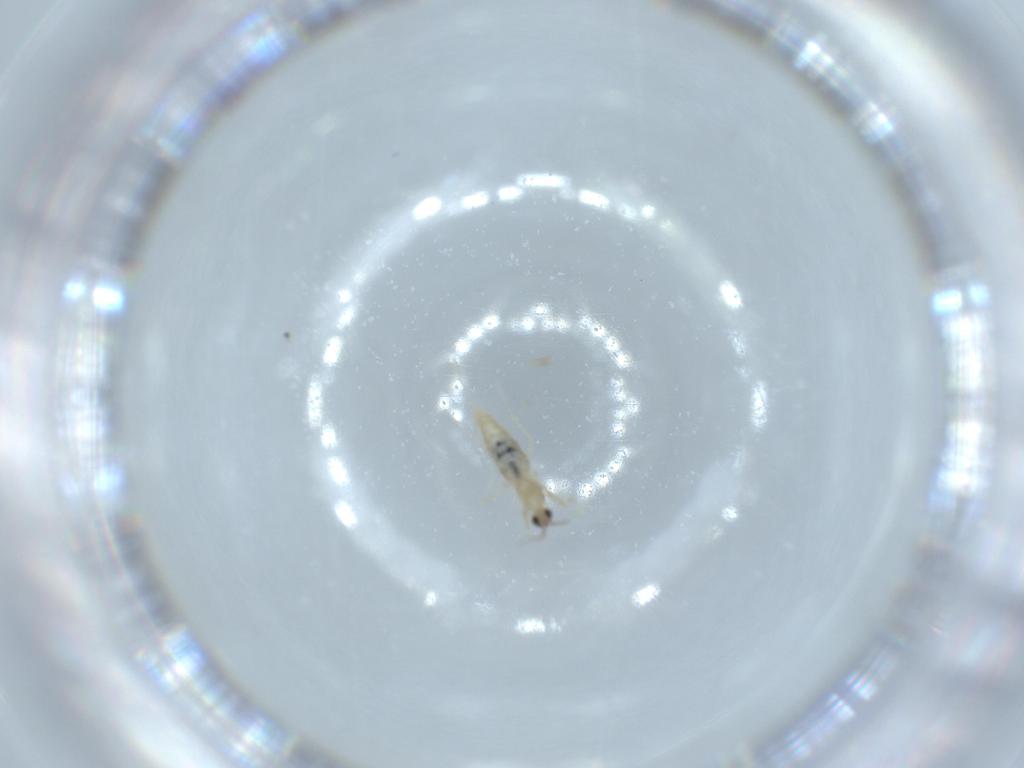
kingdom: Animalia
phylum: Arthropoda
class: Insecta
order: Diptera
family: Cecidomyiidae
